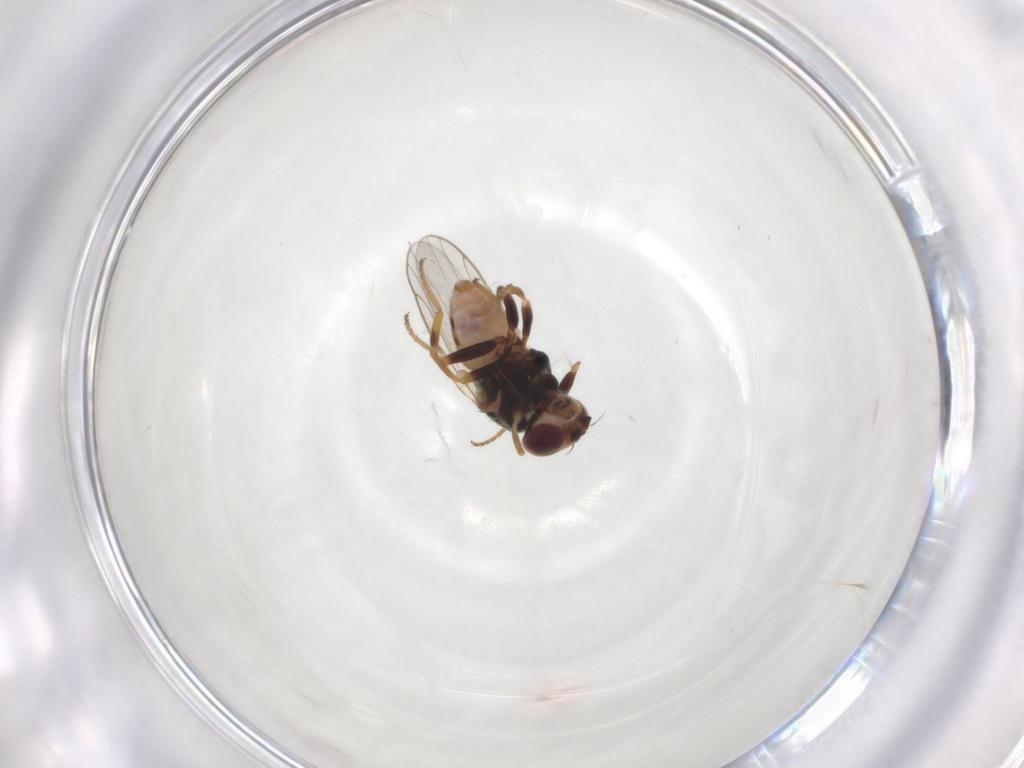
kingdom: Animalia
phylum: Arthropoda
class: Insecta
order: Diptera
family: Chloropidae
